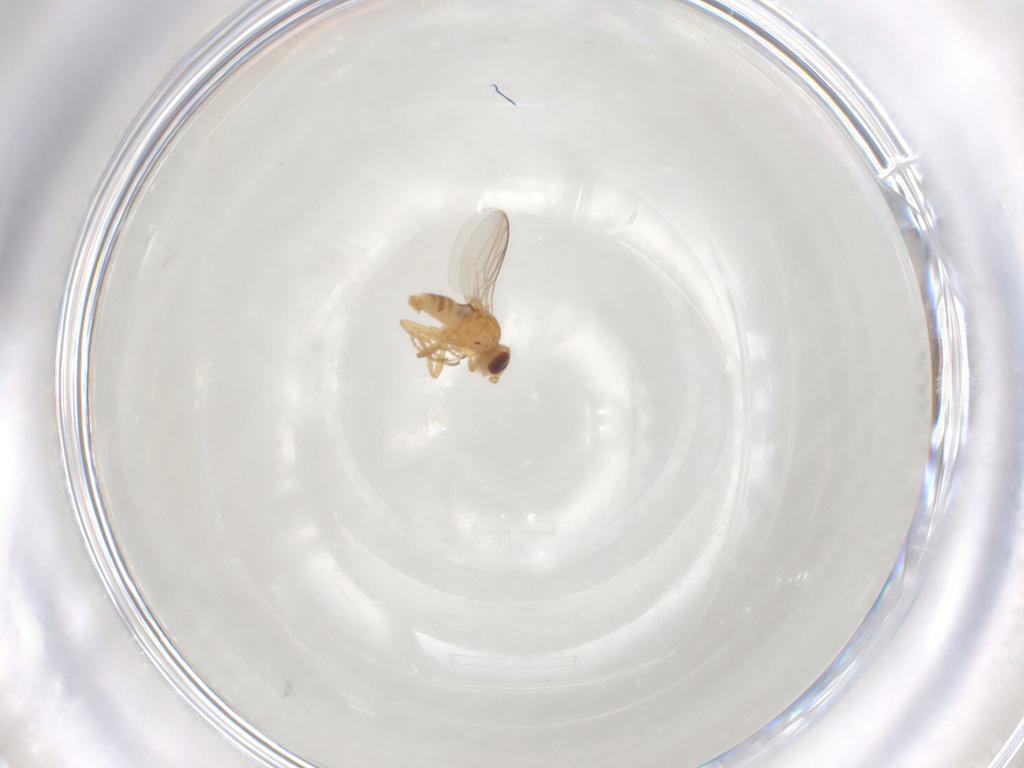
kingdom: Animalia
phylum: Arthropoda
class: Insecta
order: Diptera
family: Chloropidae
